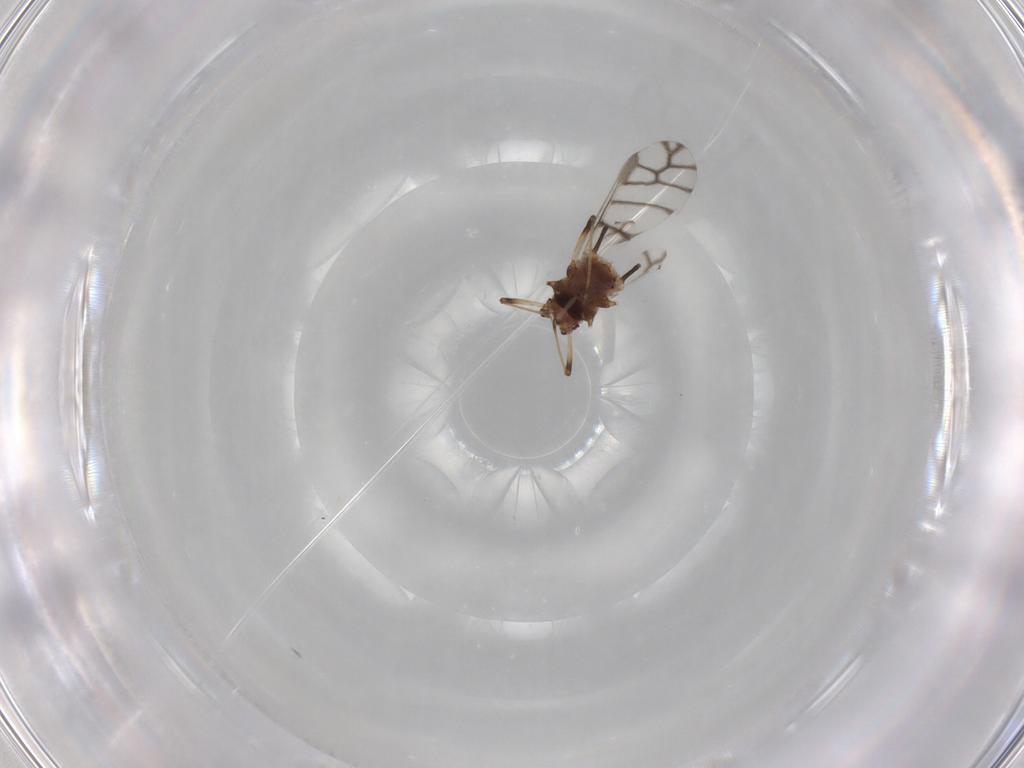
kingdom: Animalia
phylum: Arthropoda
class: Insecta
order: Hemiptera
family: Aphididae
